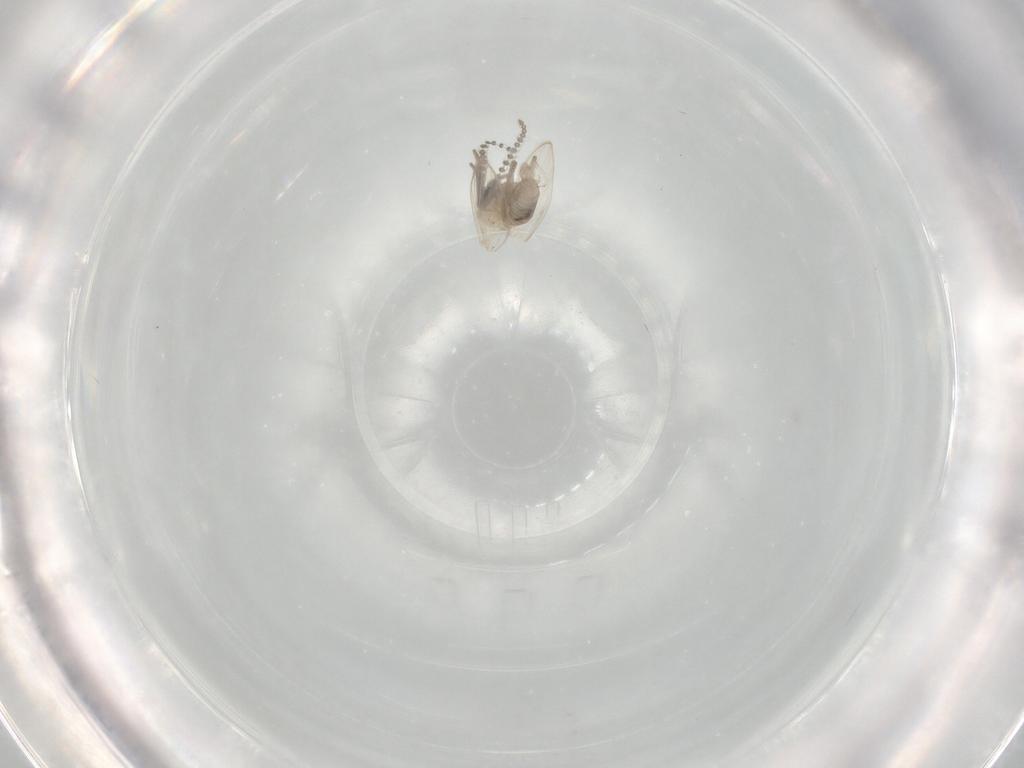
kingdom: Animalia
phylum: Arthropoda
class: Insecta
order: Diptera
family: Psychodidae
